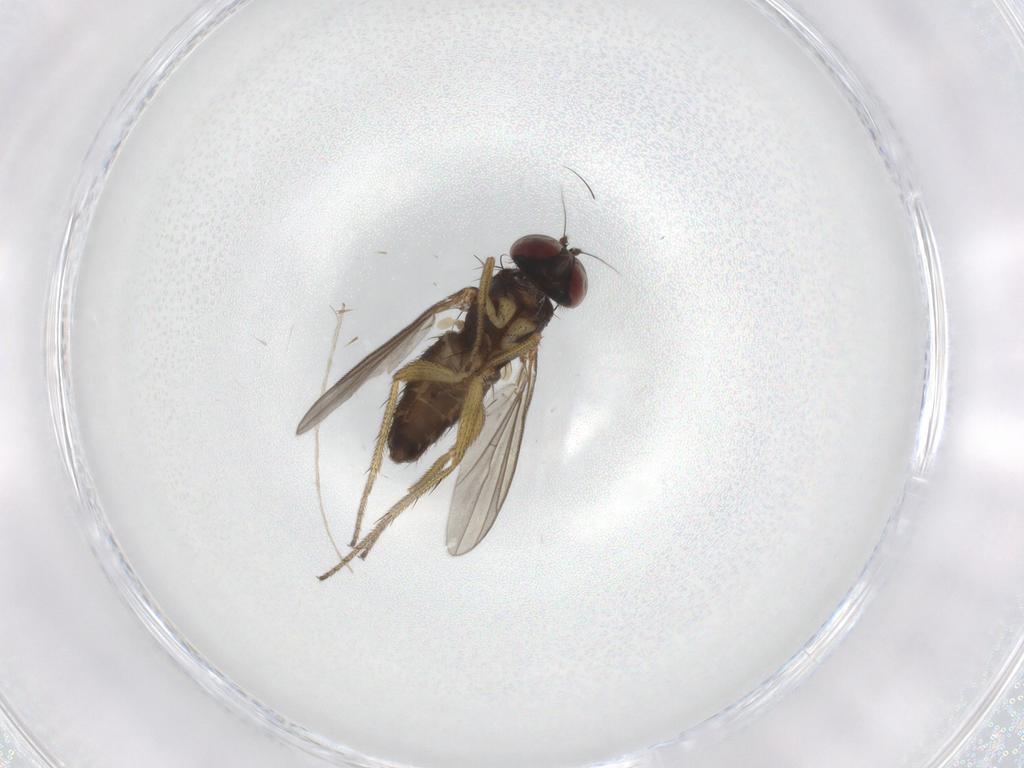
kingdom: Animalia
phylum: Arthropoda
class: Insecta
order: Diptera
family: Dolichopodidae
